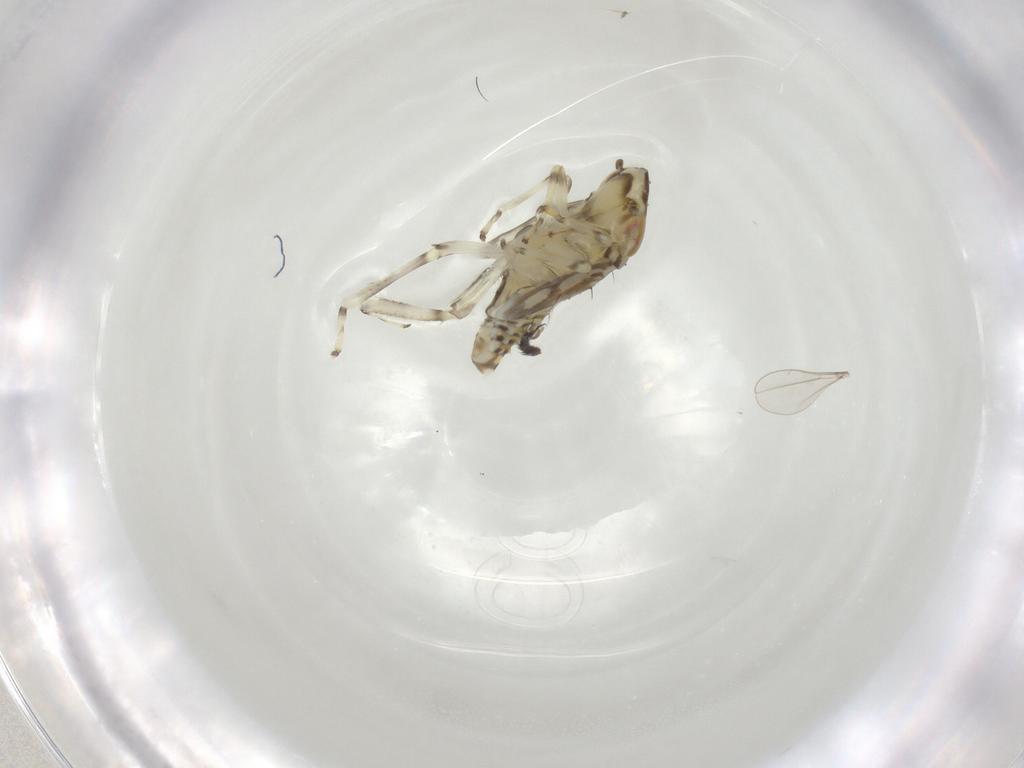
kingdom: Animalia
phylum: Arthropoda
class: Insecta
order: Hemiptera
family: Cicadellidae
